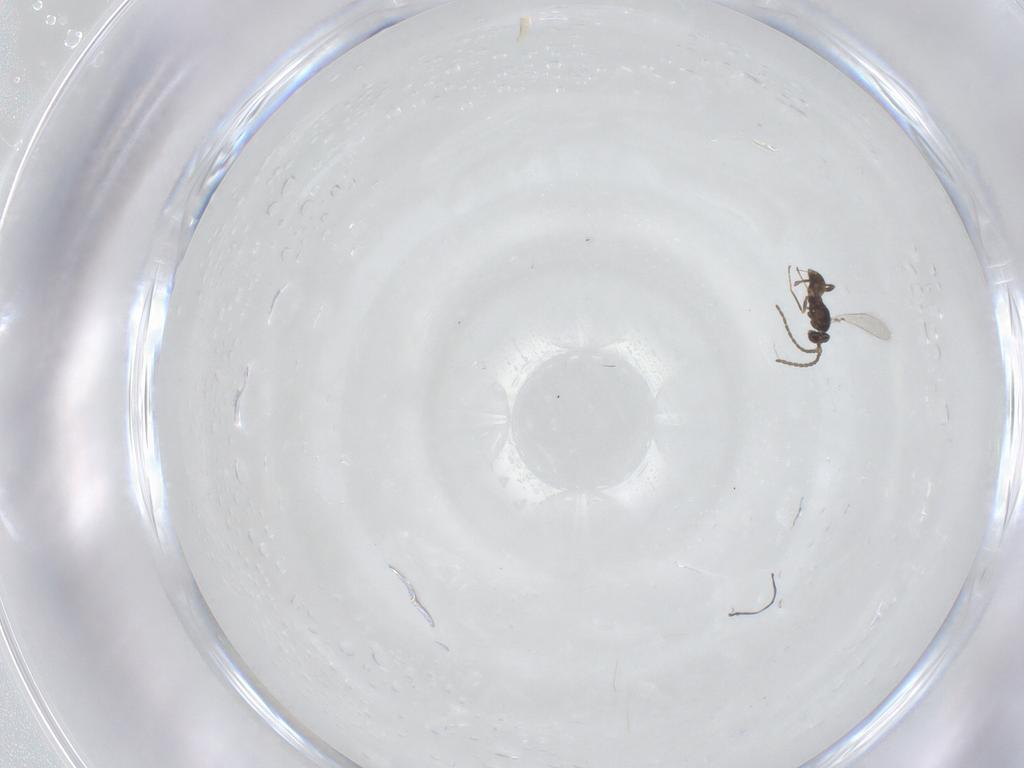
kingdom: Animalia
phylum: Arthropoda
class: Insecta
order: Hymenoptera
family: Mymaridae
